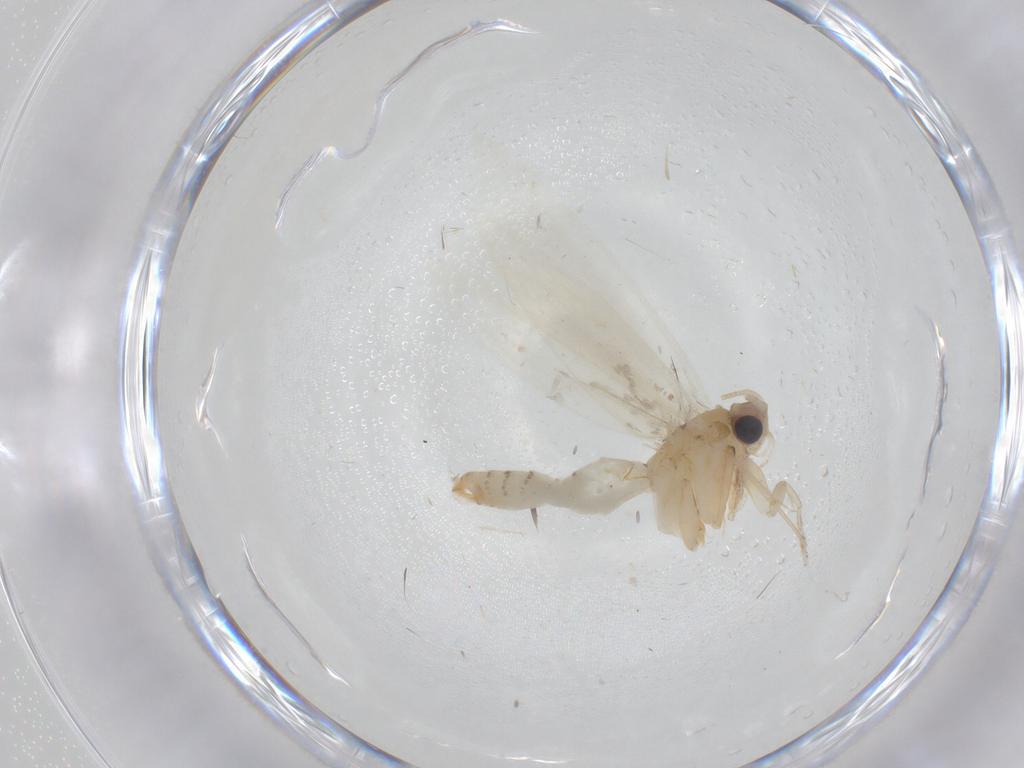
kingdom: Animalia
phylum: Arthropoda
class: Insecta
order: Lepidoptera
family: Tineidae
